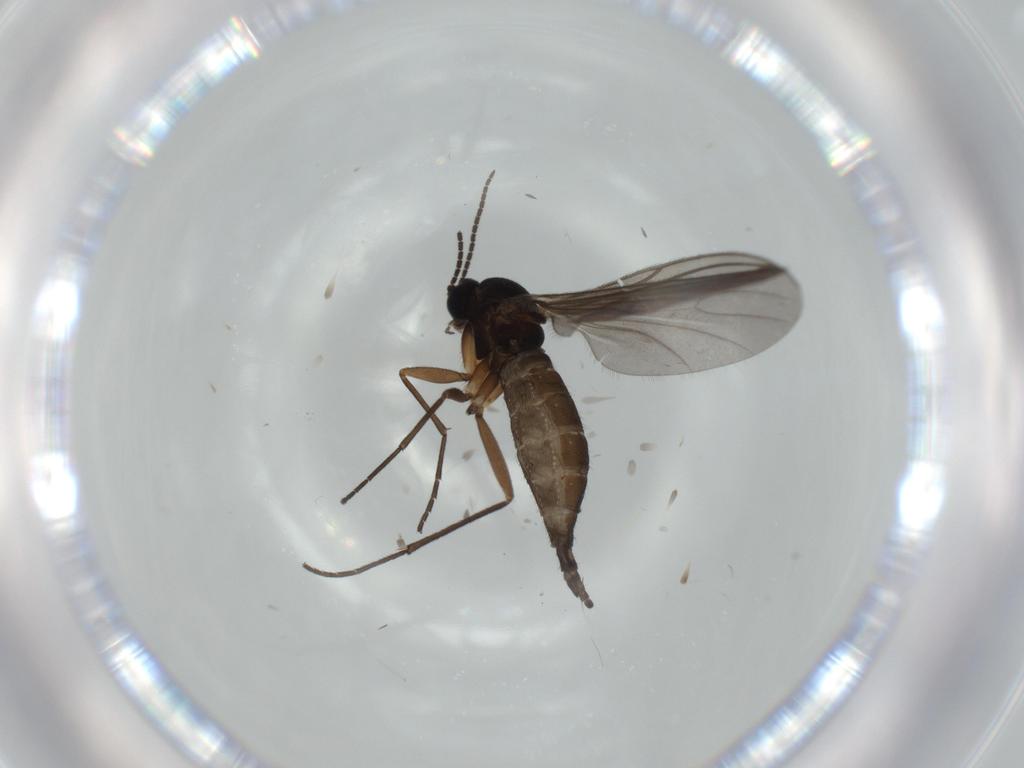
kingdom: Animalia
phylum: Arthropoda
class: Insecta
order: Diptera
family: Sciaridae
